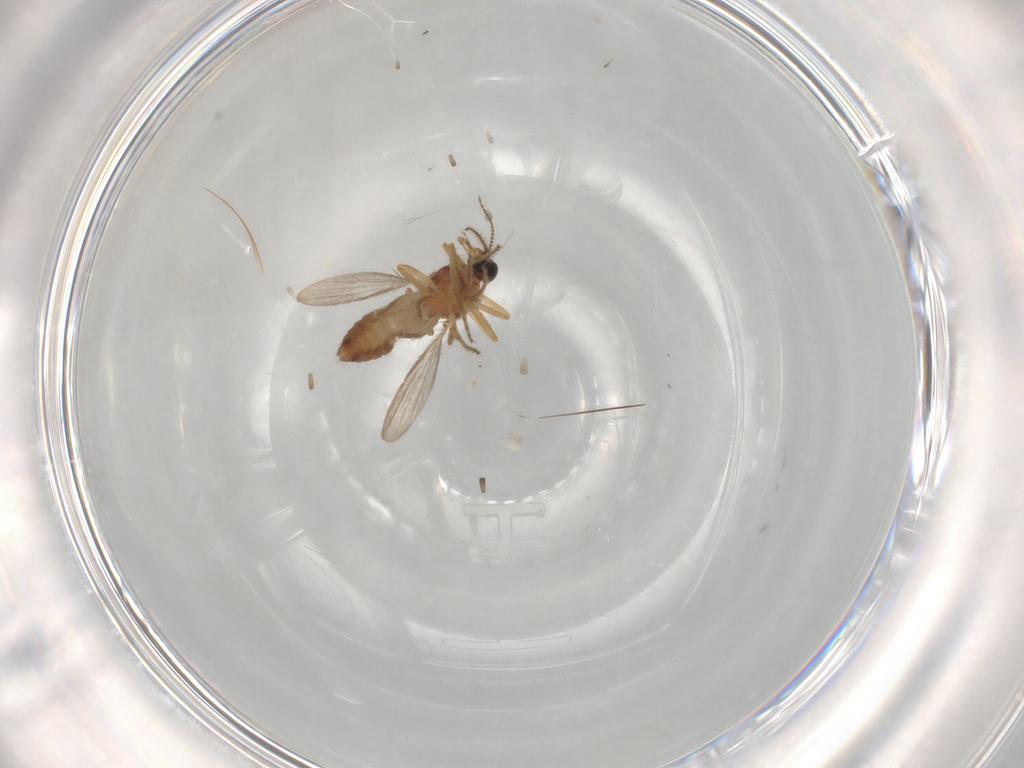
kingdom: Animalia
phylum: Arthropoda
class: Insecta
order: Diptera
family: Ceratopogonidae
